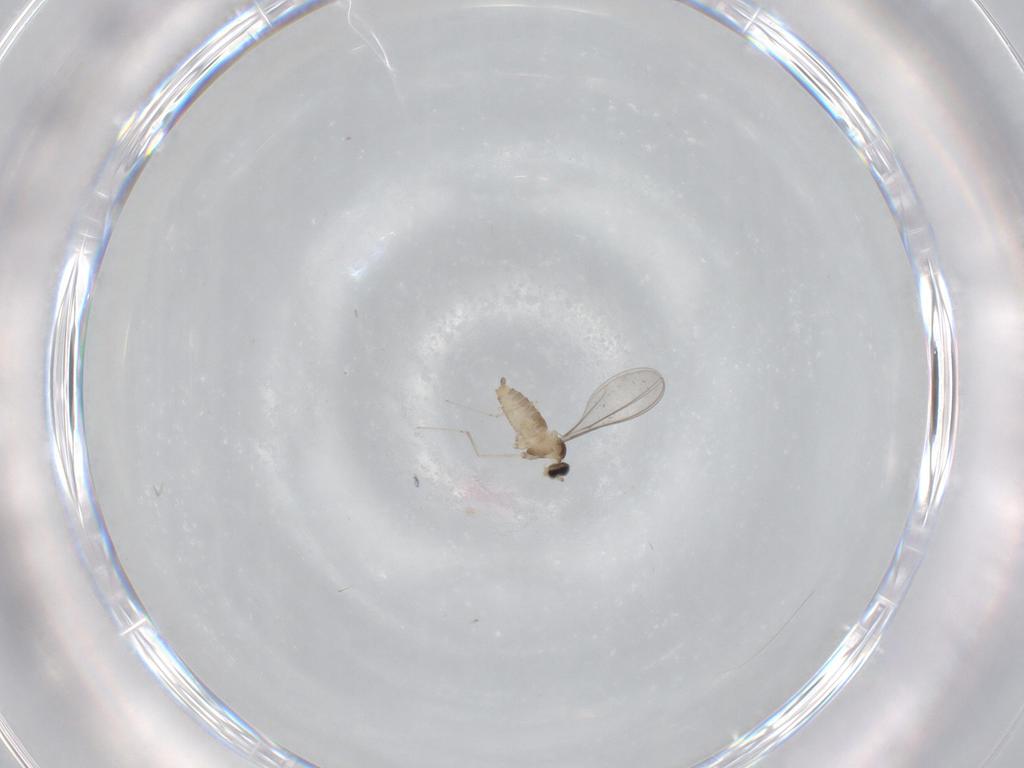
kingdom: Animalia
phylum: Arthropoda
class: Insecta
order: Diptera
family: Cecidomyiidae
